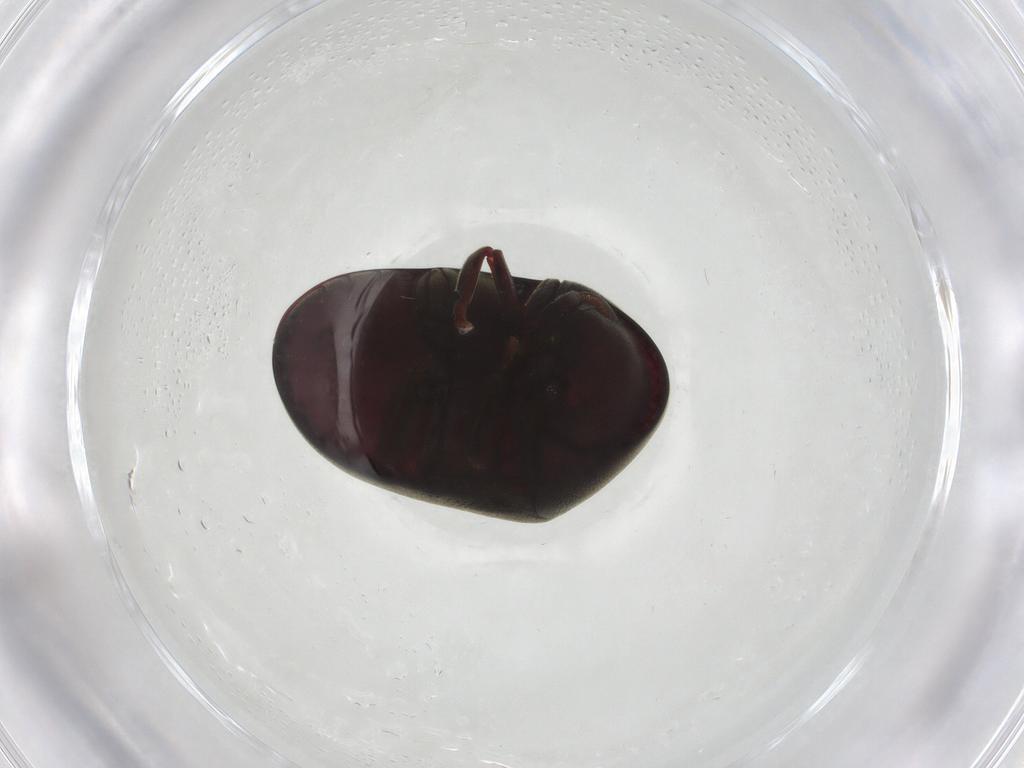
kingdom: Animalia
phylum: Arthropoda
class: Insecta
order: Coleoptera
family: Ptinidae
